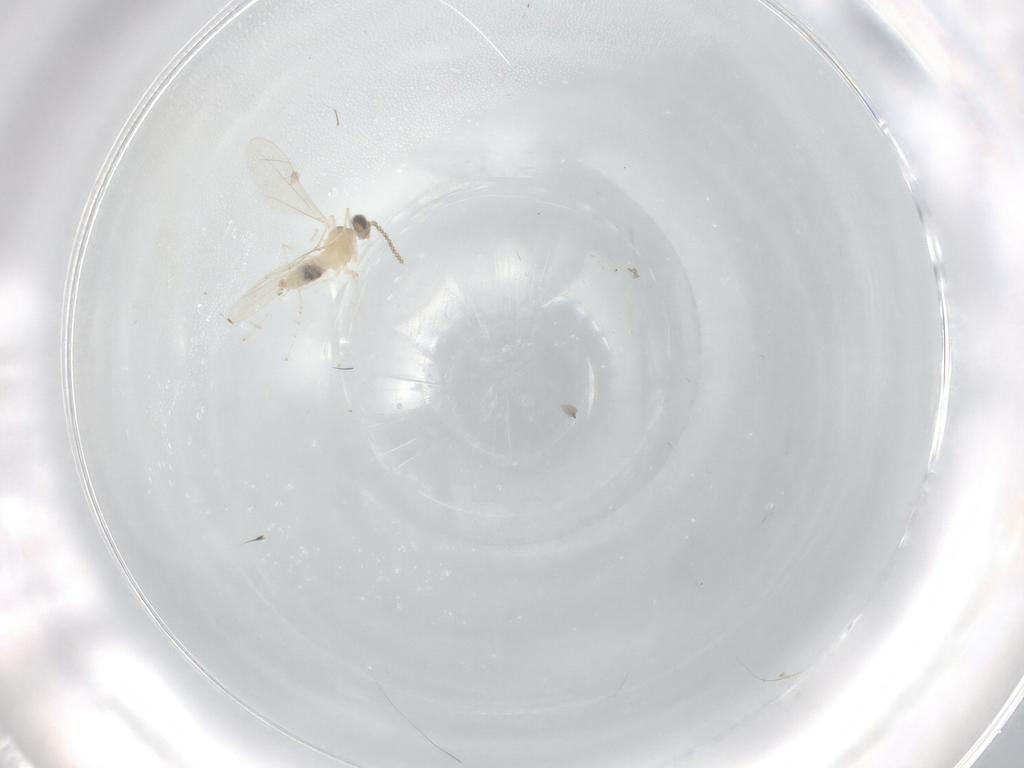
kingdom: Animalia
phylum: Arthropoda
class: Insecta
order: Diptera
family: Cecidomyiidae
